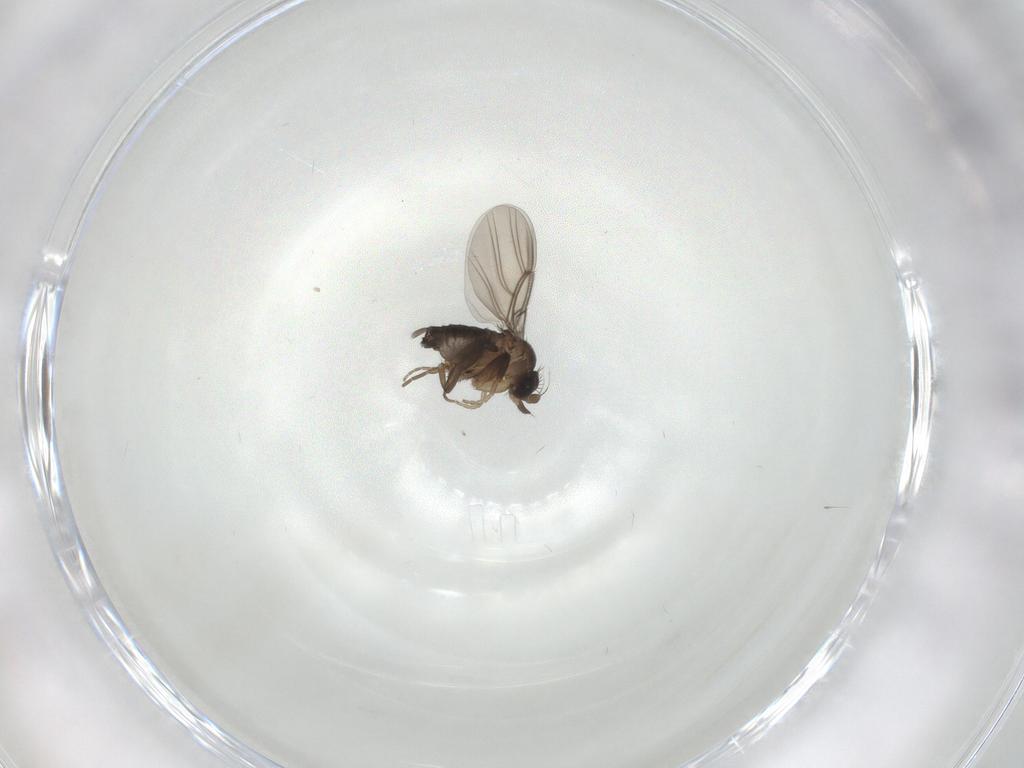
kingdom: Animalia
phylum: Arthropoda
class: Insecta
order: Diptera
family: Phoridae
